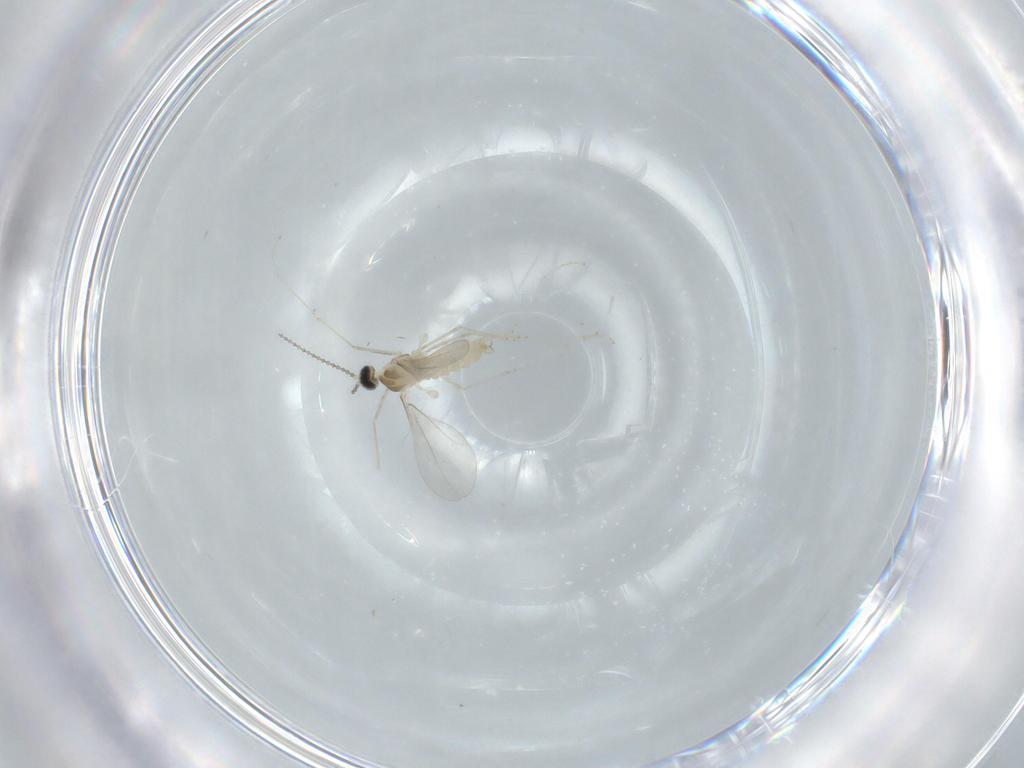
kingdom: Animalia
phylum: Arthropoda
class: Insecta
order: Diptera
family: Cecidomyiidae
